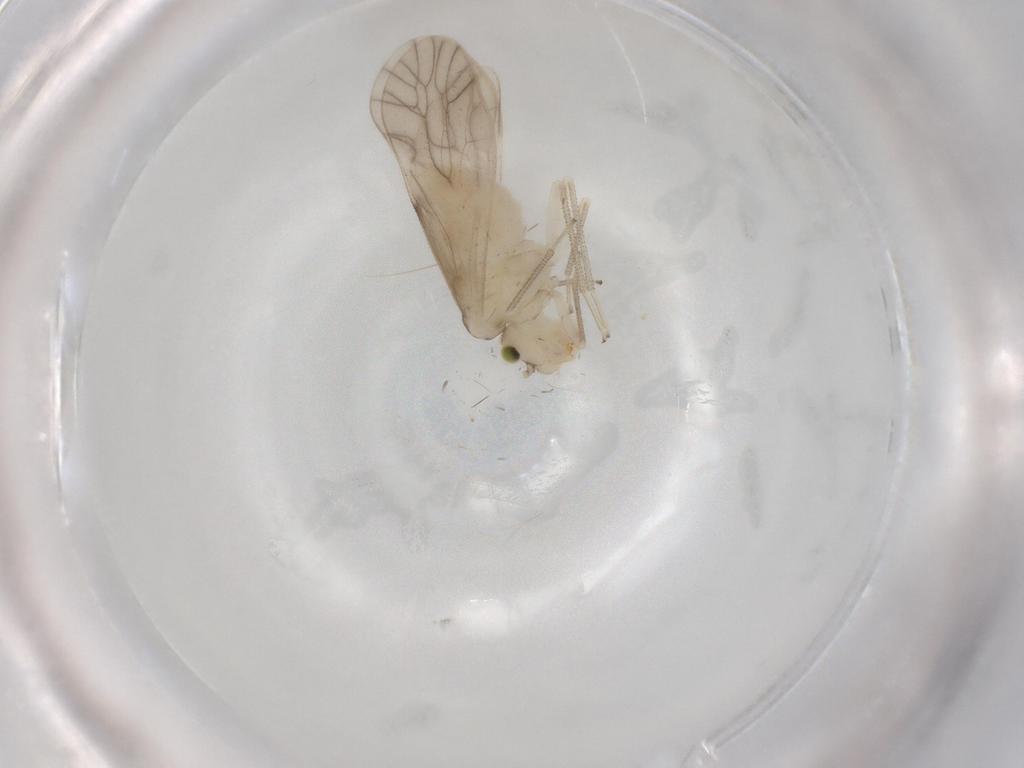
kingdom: Animalia
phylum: Arthropoda
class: Insecta
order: Psocodea
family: Caeciliusidae
